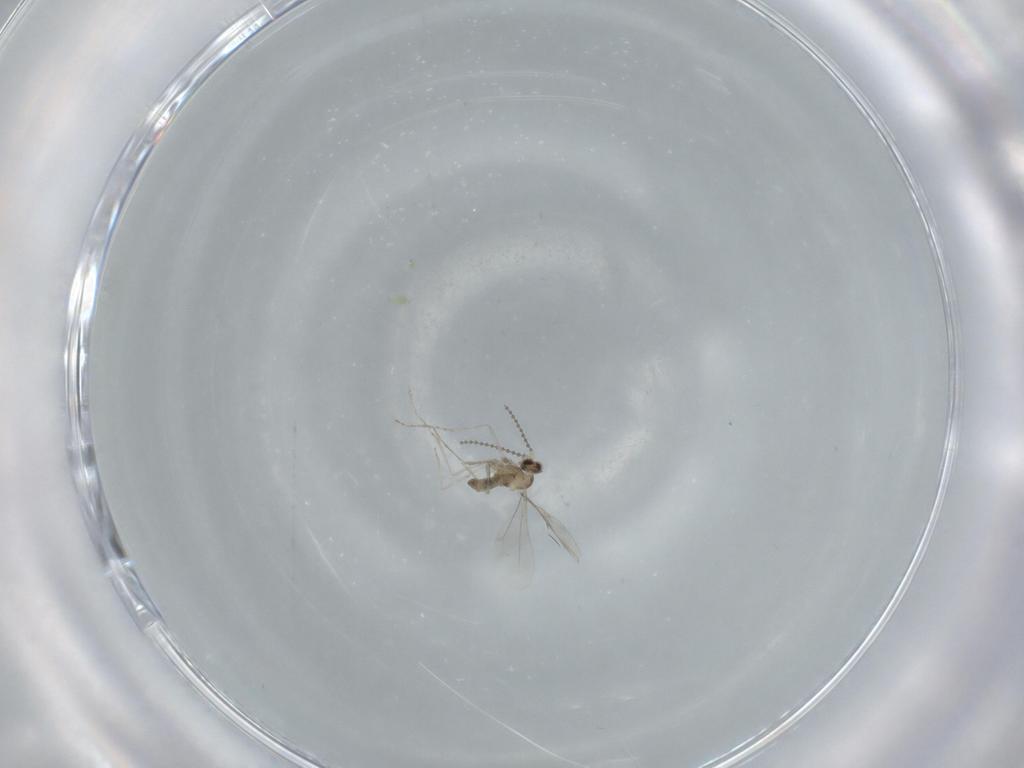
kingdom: Animalia
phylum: Arthropoda
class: Insecta
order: Diptera
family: Cecidomyiidae
